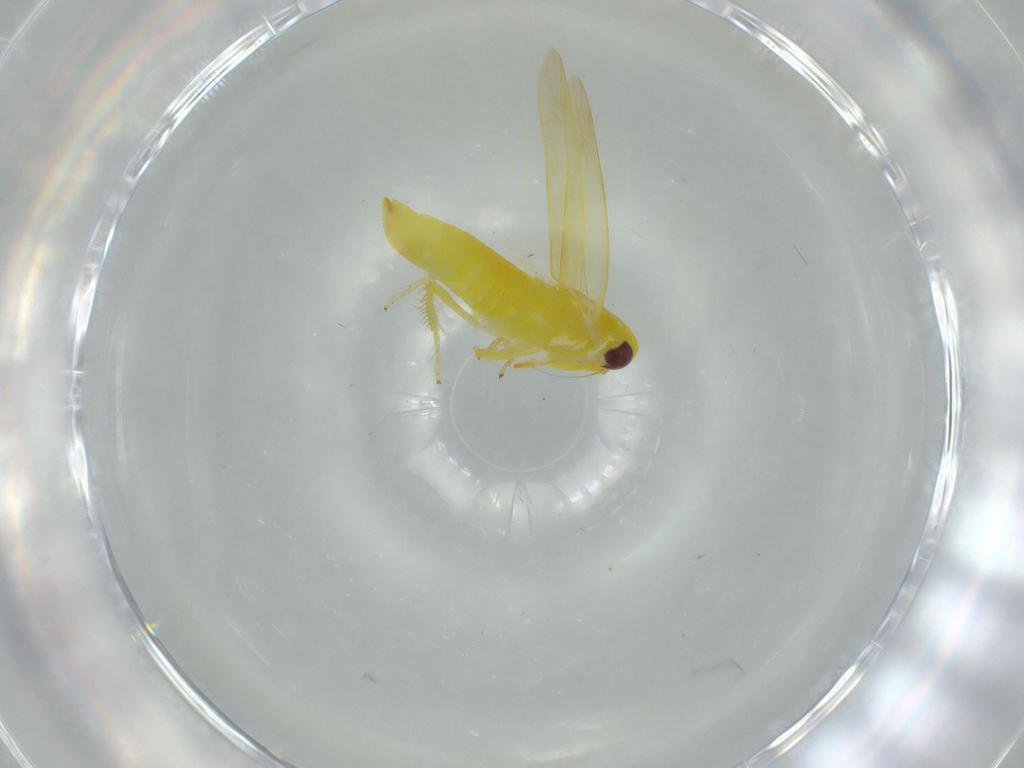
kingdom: Animalia
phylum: Arthropoda
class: Insecta
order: Hemiptera
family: Cicadellidae
